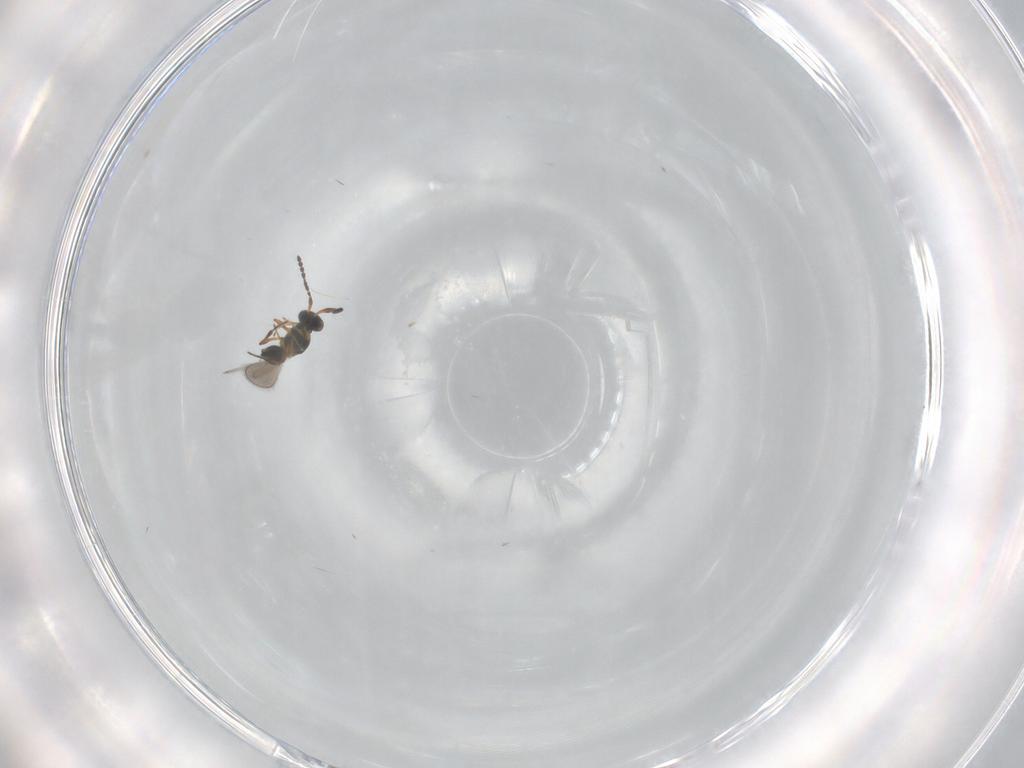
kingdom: Animalia
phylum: Arthropoda
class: Insecta
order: Hymenoptera
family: Platygastridae
